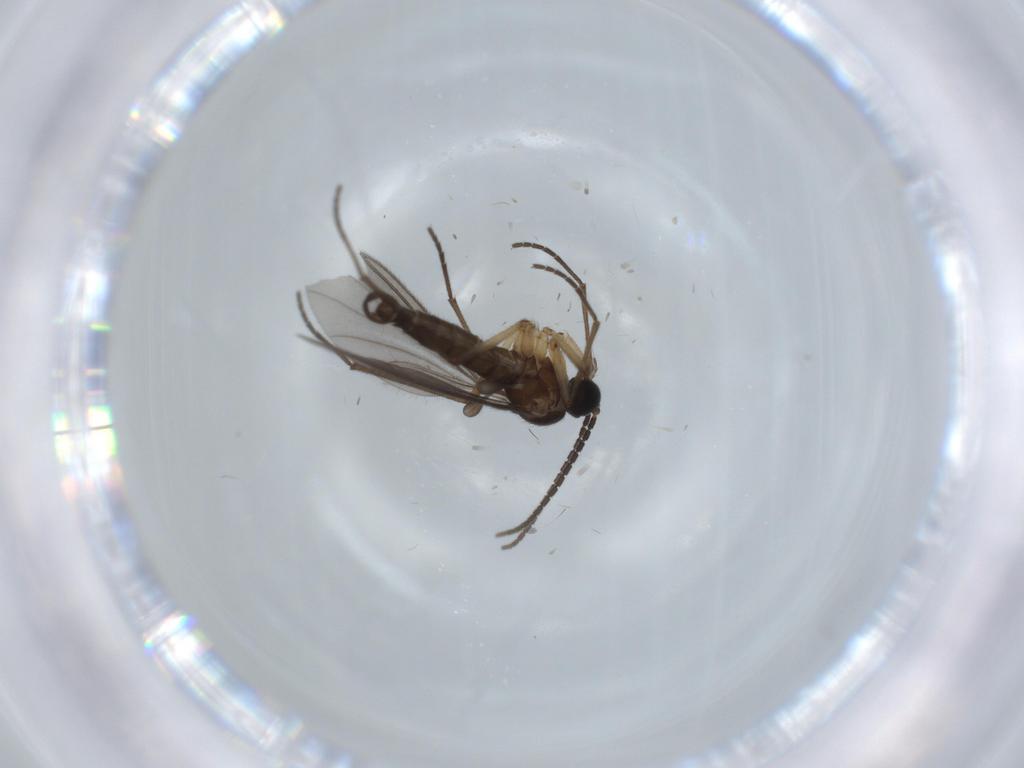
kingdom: Animalia
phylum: Arthropoda
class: Insecta
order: Diptera
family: Sciaridae
